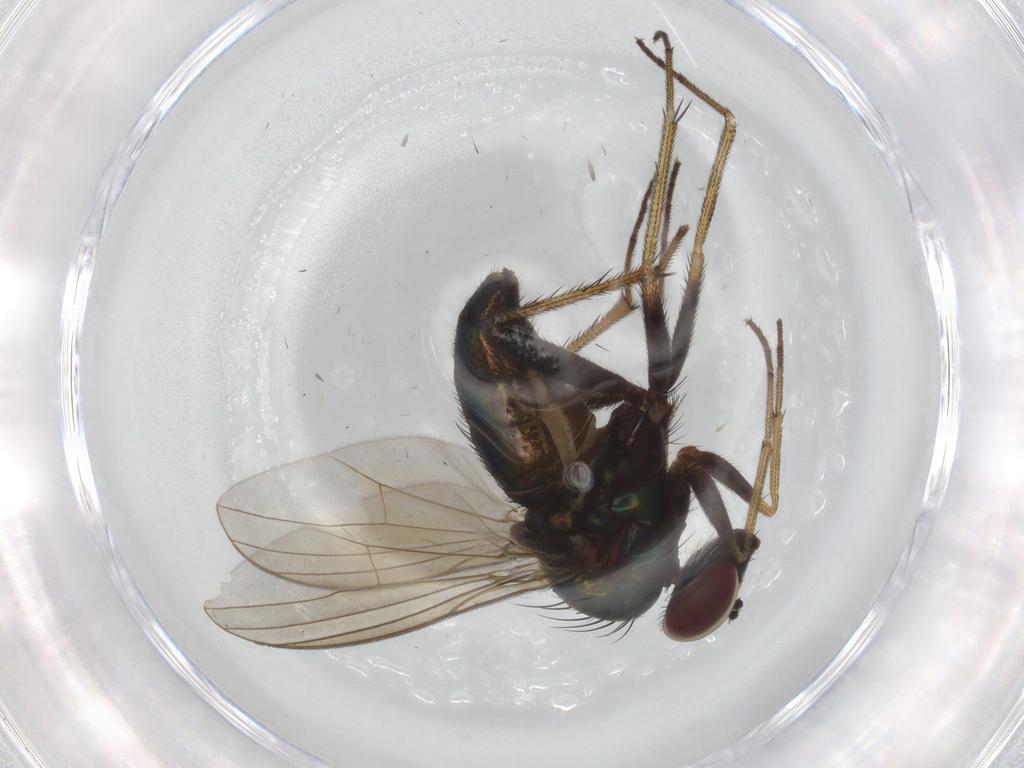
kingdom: Animalia
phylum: Arthropoda
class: Insecta
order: Diptera
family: Dolichopodidae
